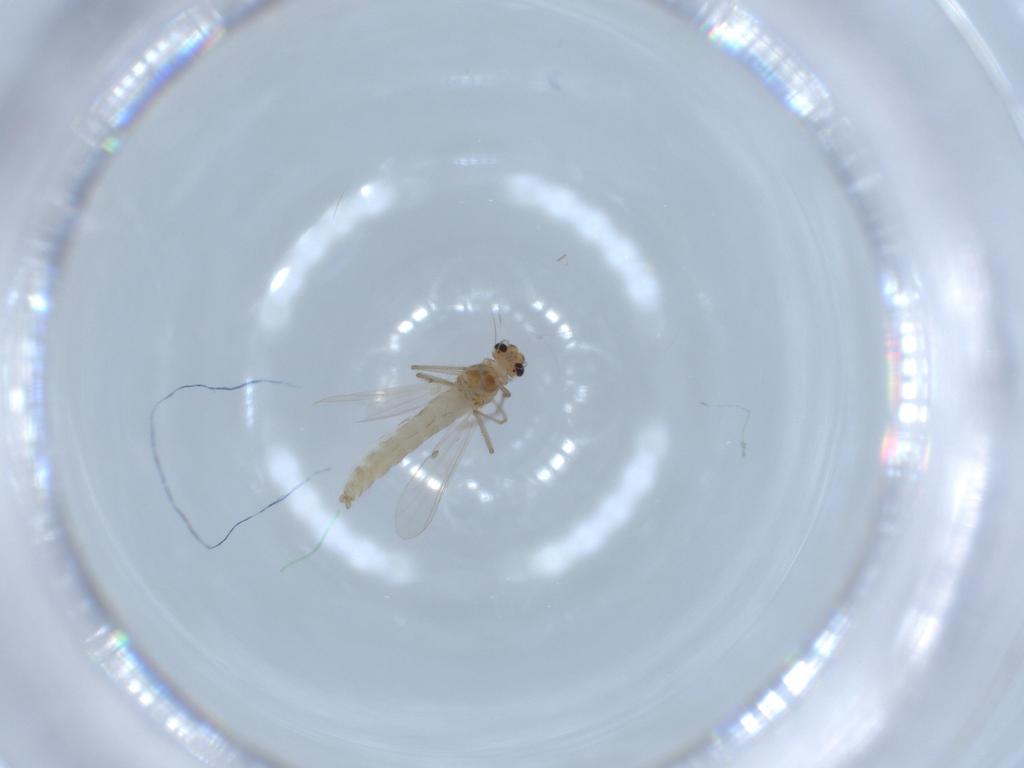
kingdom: Animalia
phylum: Arthropoda
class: Insecta
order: Diptera
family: Chironomidae
